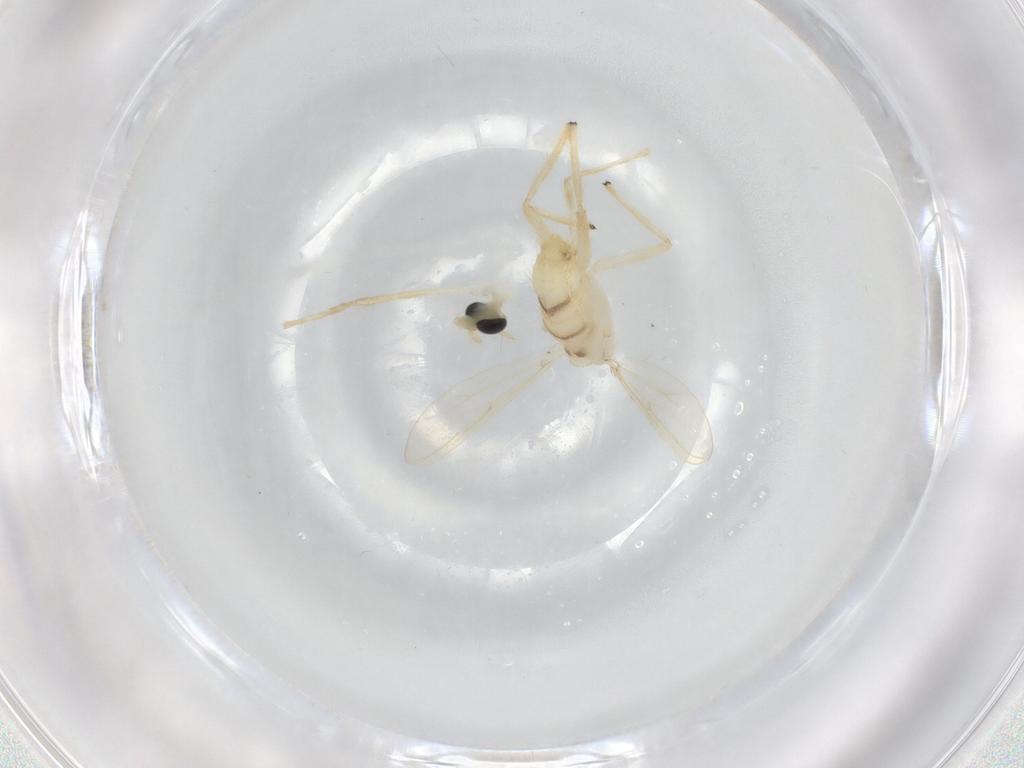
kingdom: Animalia
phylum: Arthropoda
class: Insecta
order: Diptera
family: Chironomidae
